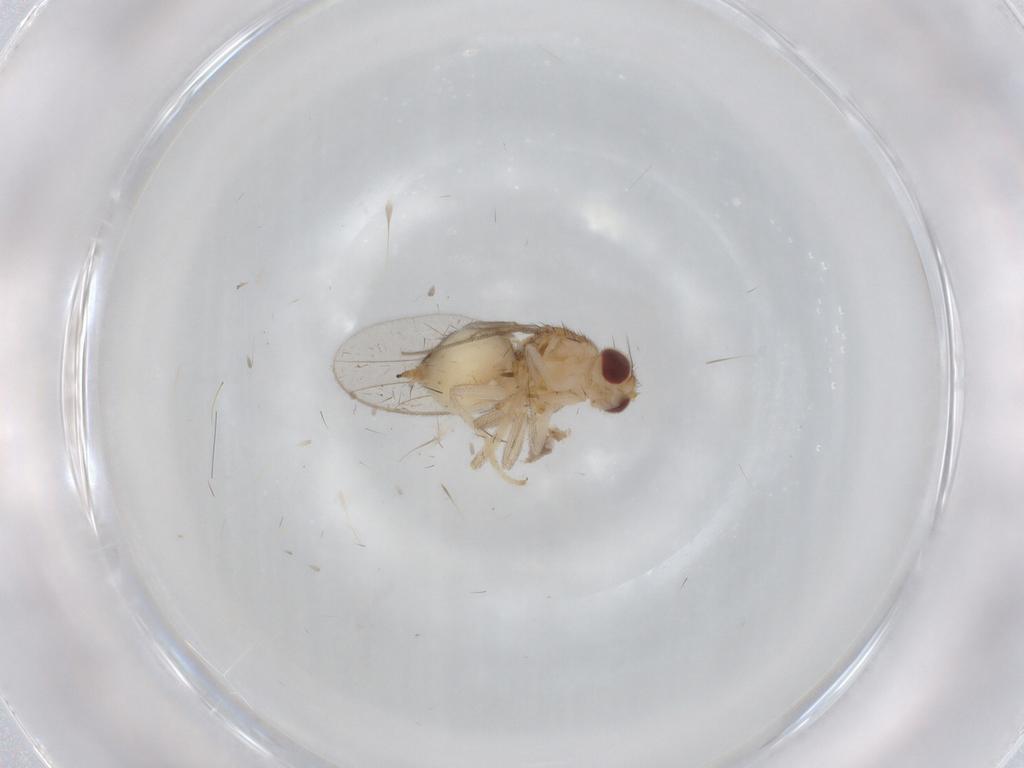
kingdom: Animalia
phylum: Arthropoda
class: Insecta
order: Diptera
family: Chloropidae
